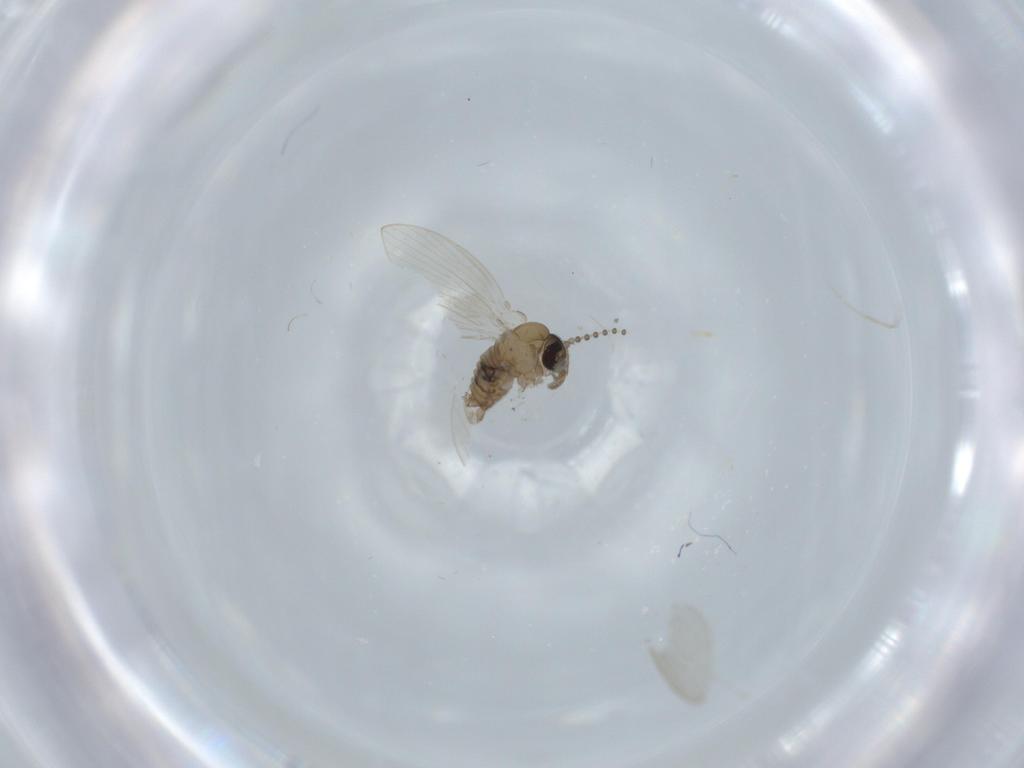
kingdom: Animalia
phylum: Arthropoda
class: Insecta
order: Diptera
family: Psychodidae
